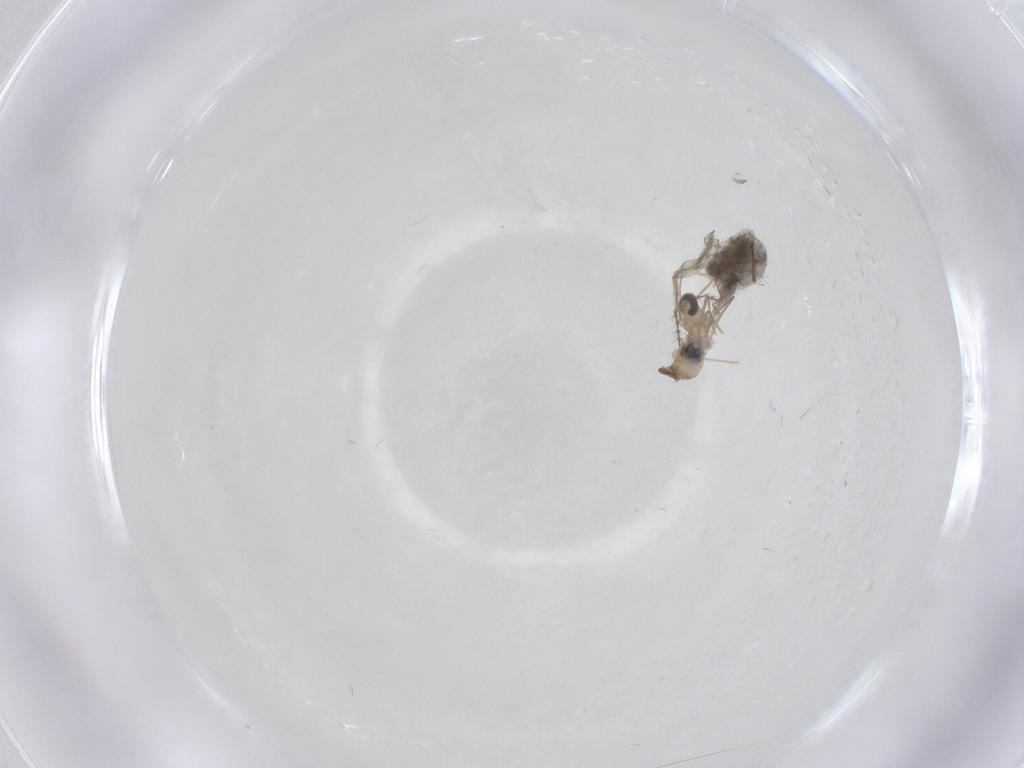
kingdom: Animalia
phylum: Arthropoda
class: Insecta
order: Diptera
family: Cecidomyiidae
